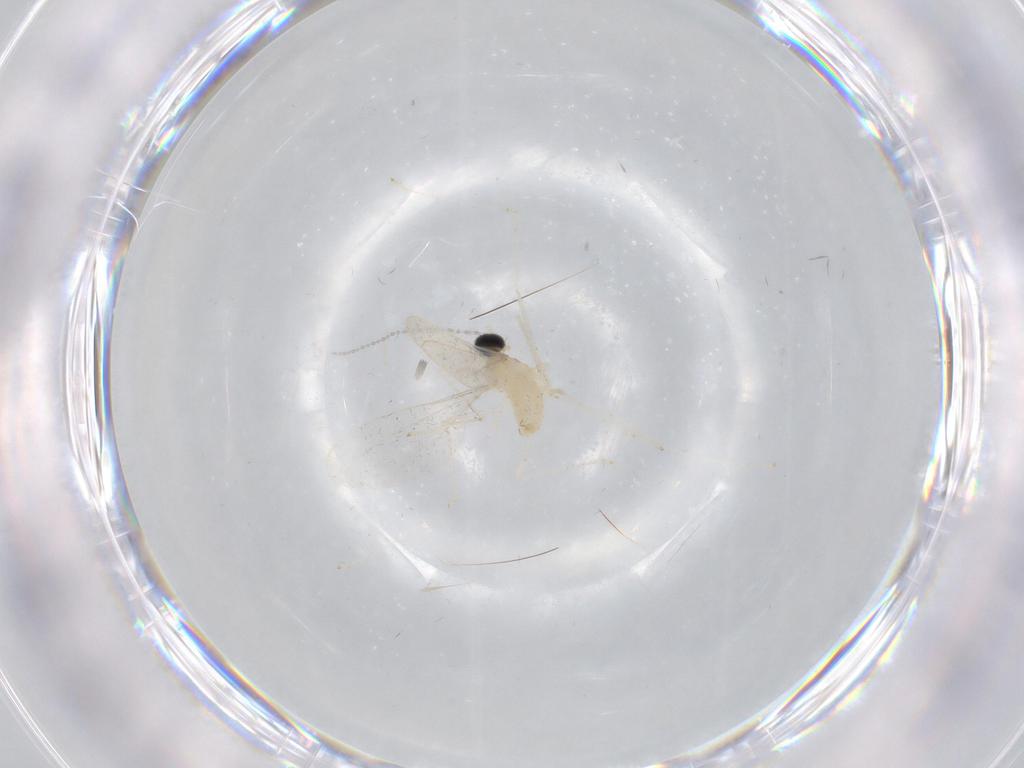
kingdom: Animalia
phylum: Arthropoda
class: Insecta
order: Diptera
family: Cecidomyiidae
